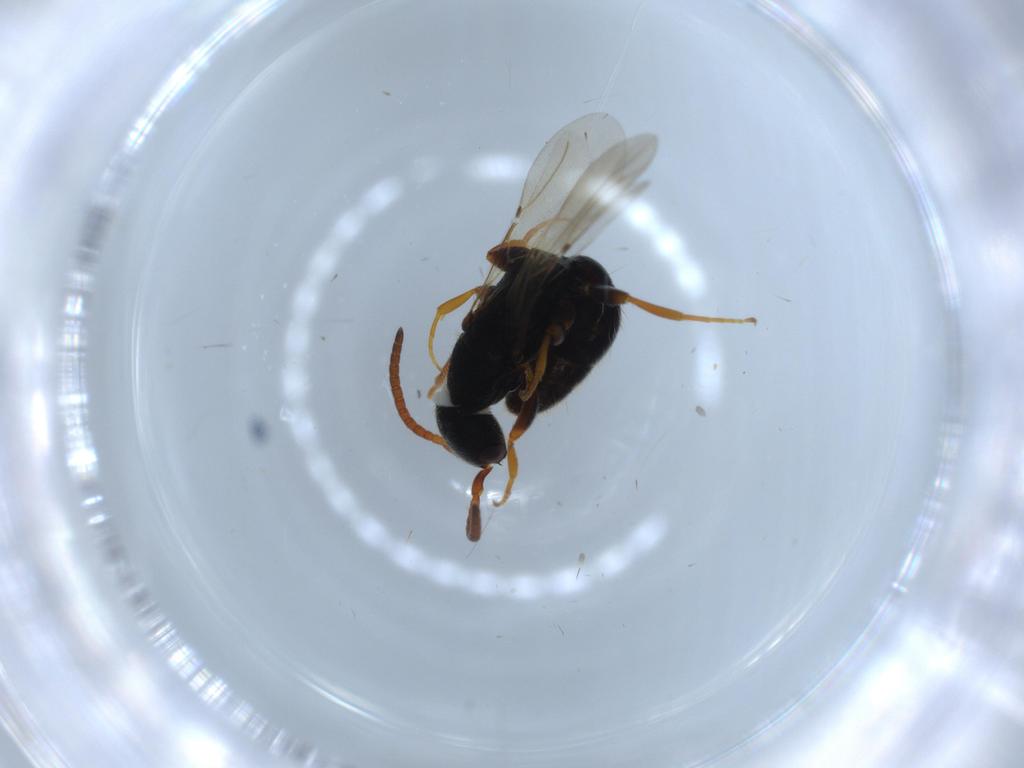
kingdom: Animalia
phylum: Arthropoda
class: Insecta
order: Hymenoptera
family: Bethylidae
